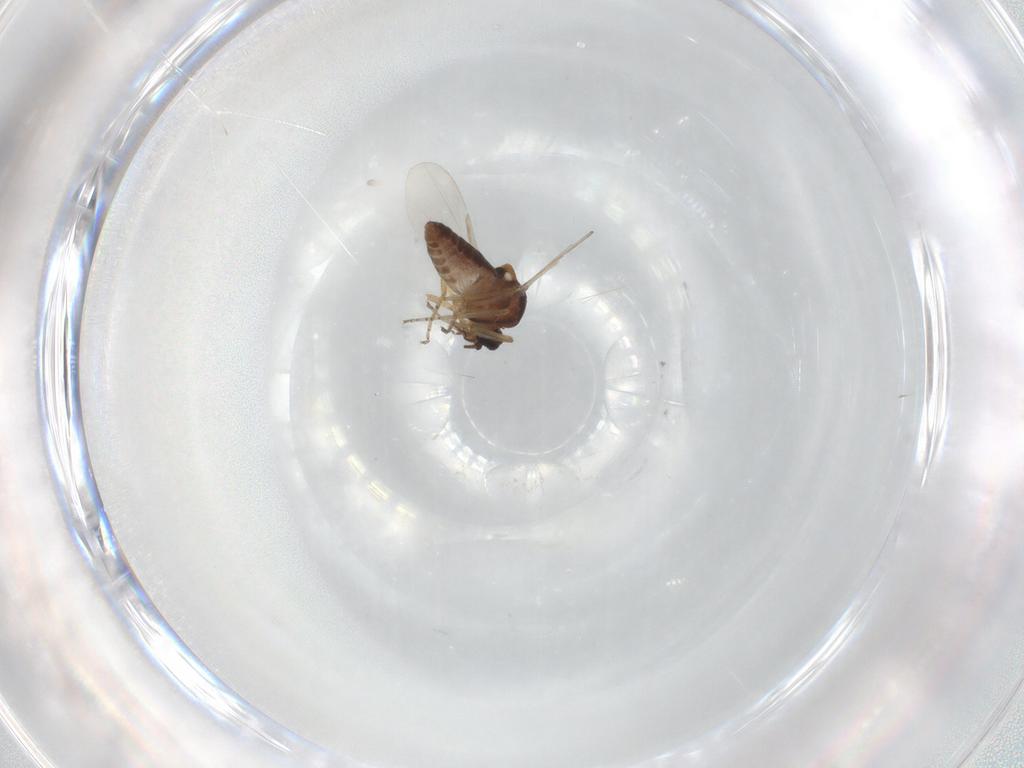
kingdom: Animalia
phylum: Arthropoda
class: Insecta
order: Diptera
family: Ceratopogonidae
